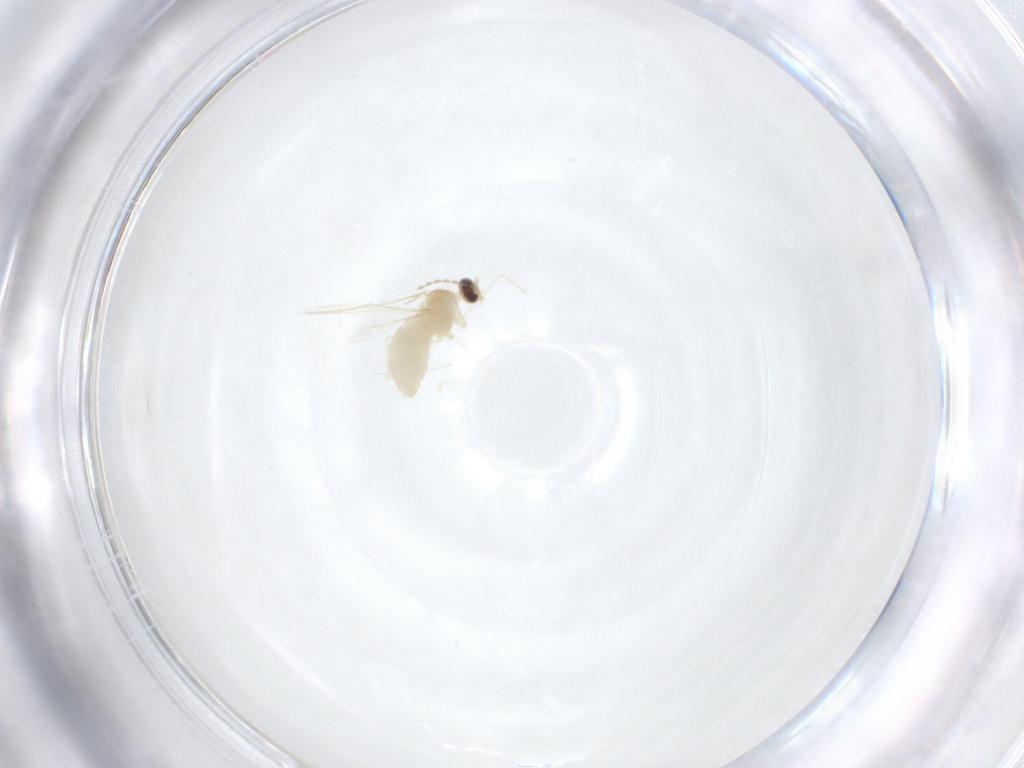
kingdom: Animalia
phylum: Arthropoda
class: Insecta
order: Diptera
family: Cecidomyiidae
